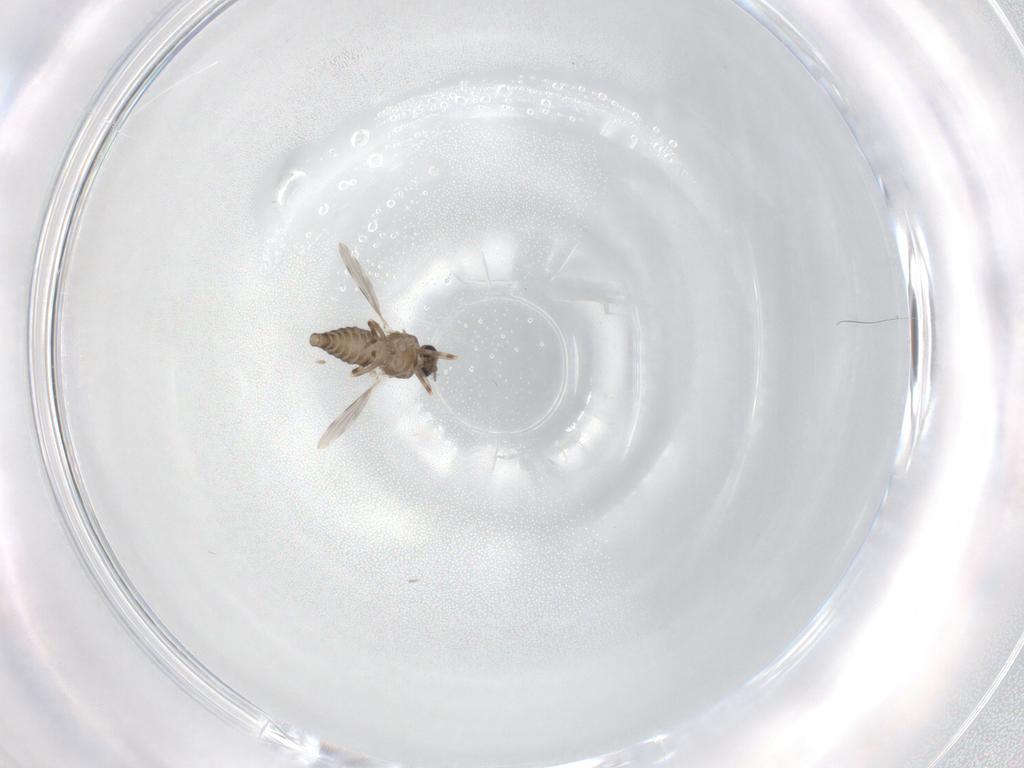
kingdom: Animalia
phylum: Arthropoda
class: Insecta
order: Diptera
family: Ceratopogonidae
